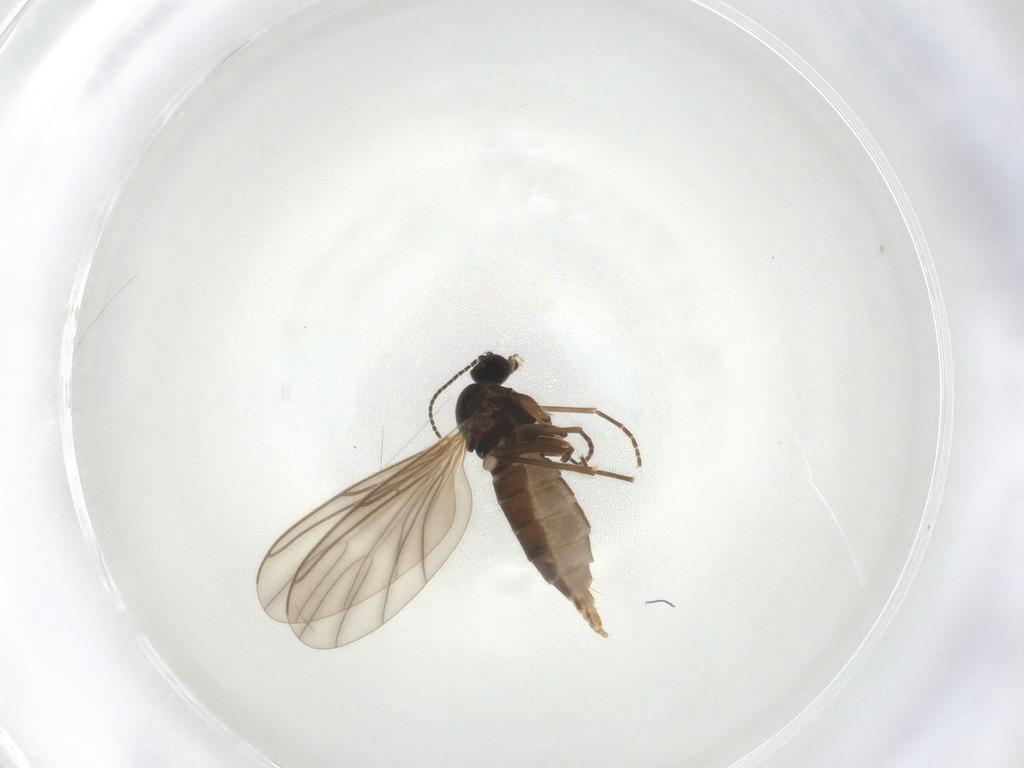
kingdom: Animalia
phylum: Arthropoda
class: Insecta
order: Diptera
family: Sciaridae
